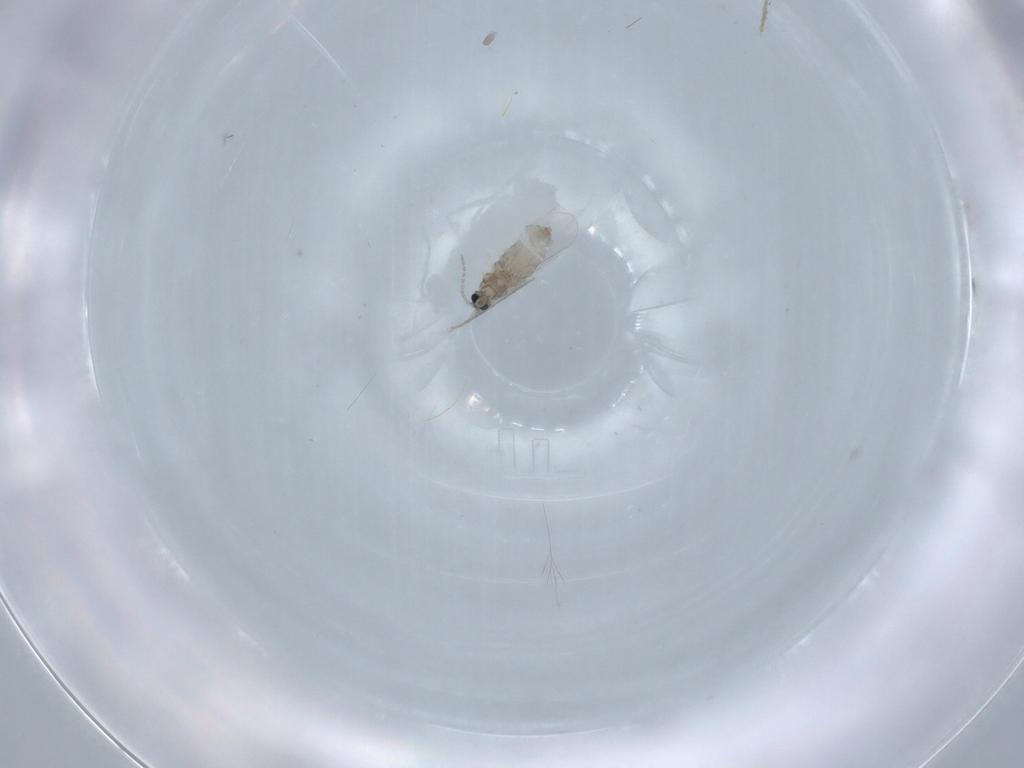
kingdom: Animalia
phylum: Arthropoda
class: Insecta
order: Diptera
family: Cecidomyiidae
